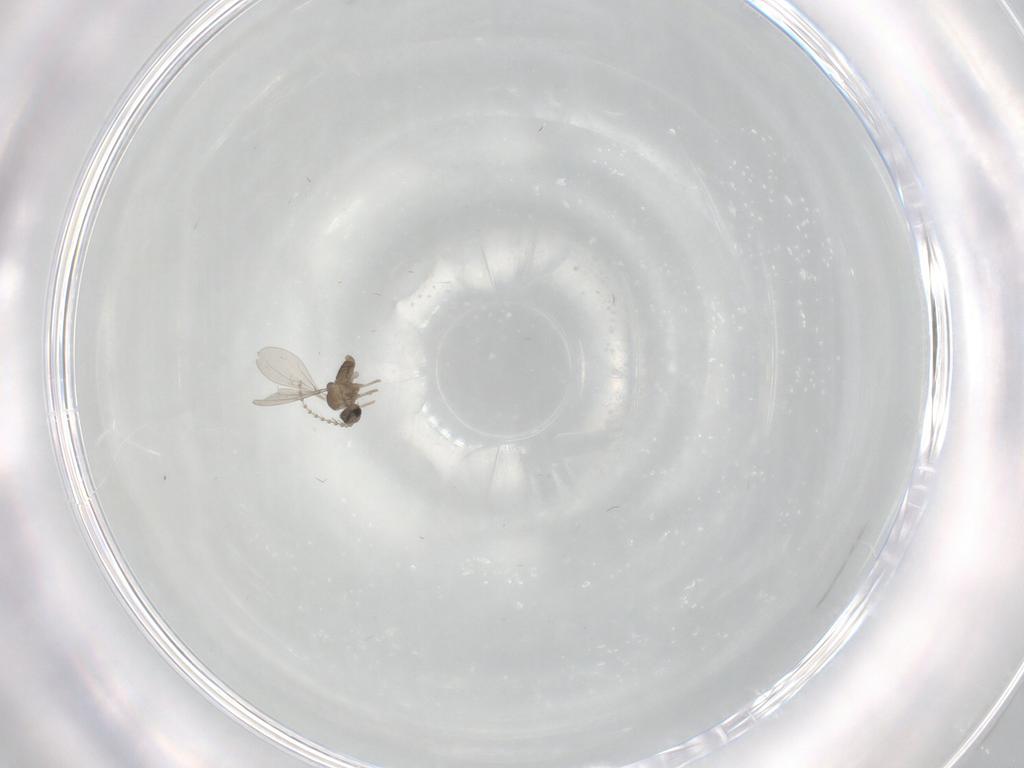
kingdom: Animalia
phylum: Arthropoda
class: Insecta
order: Diptera
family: Cecidomyiidae
